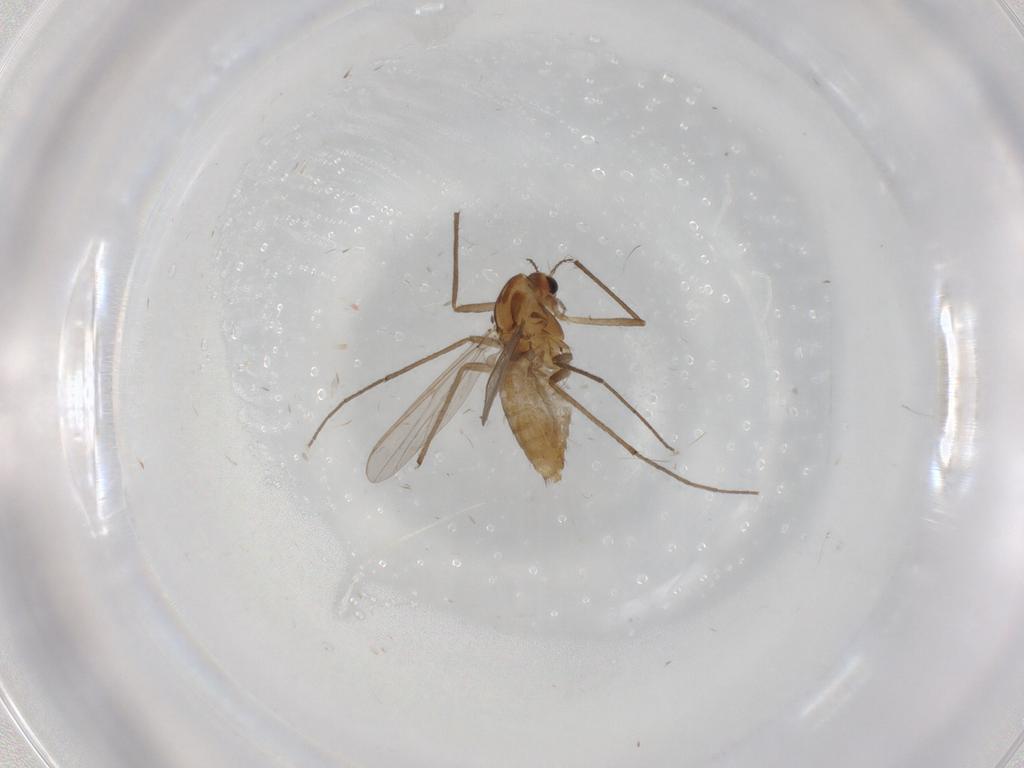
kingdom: Animalia
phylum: Arthropoda
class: Insecta
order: Diptera
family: Chironomidae
